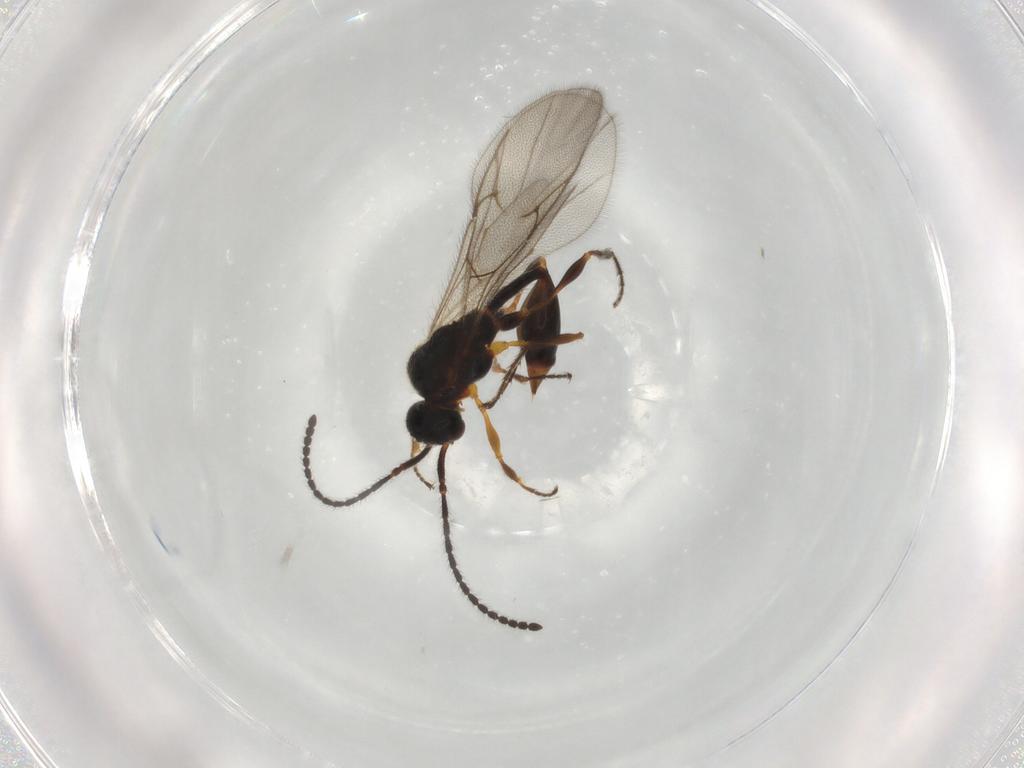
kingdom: Animalia
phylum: Arthropoda
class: Insecta
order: Hymenoptera
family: Diapriidae
